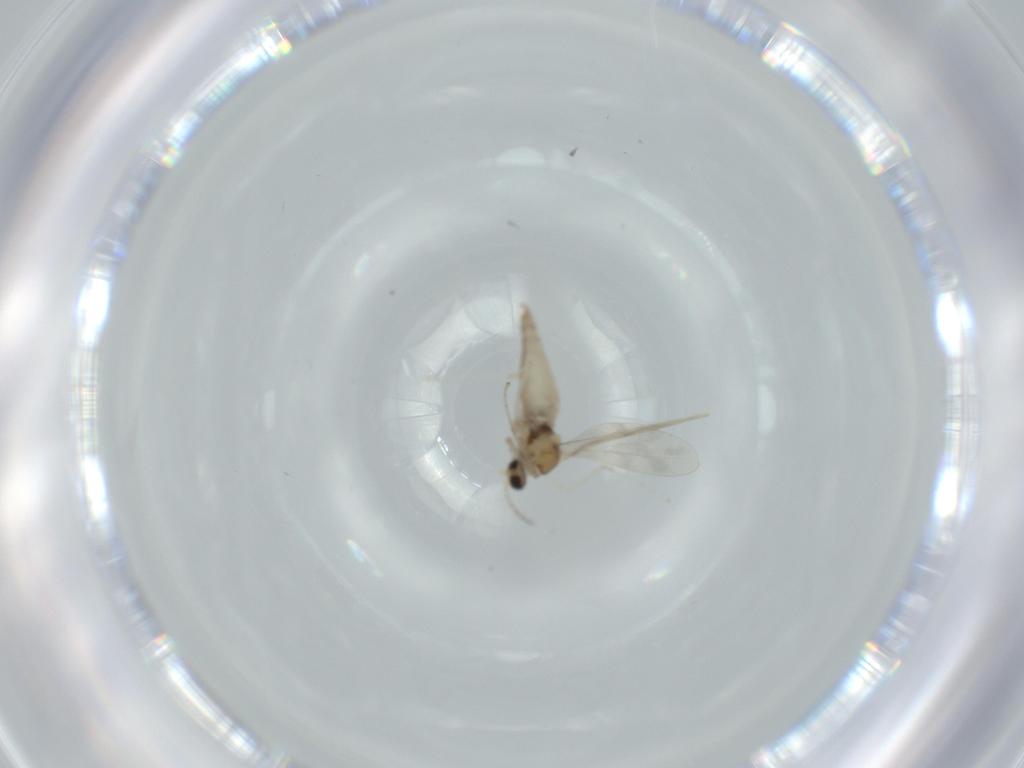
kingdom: Animalia
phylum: Arthropoda
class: Insecta
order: Diptera
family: Cecidomyiidae
